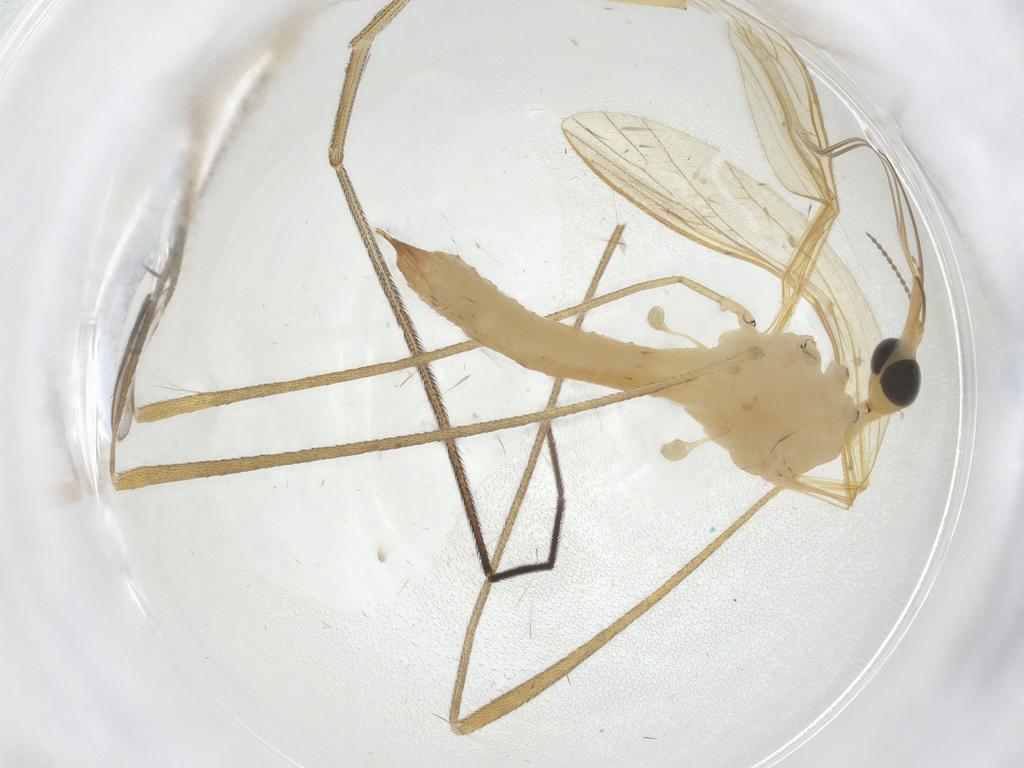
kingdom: Animalia
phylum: Arthropoda
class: Insecta
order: Diptera
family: Limoniidae
